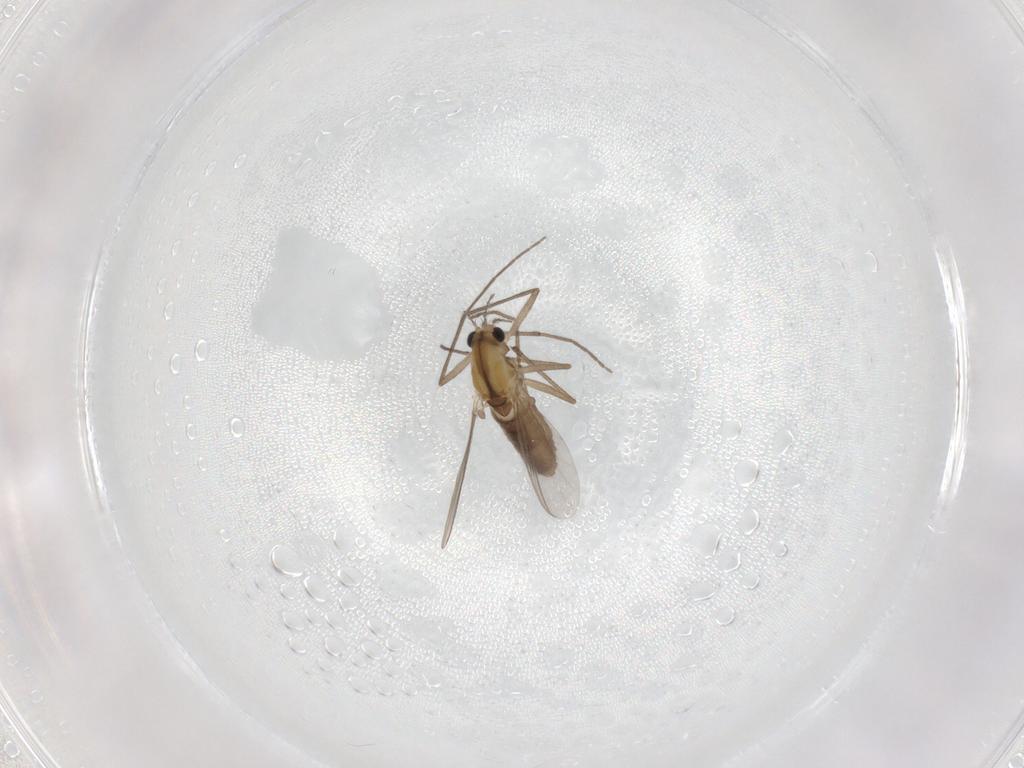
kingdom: Animalia
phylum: Arthropoda
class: Insecta
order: Diptera
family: Chironomidae
